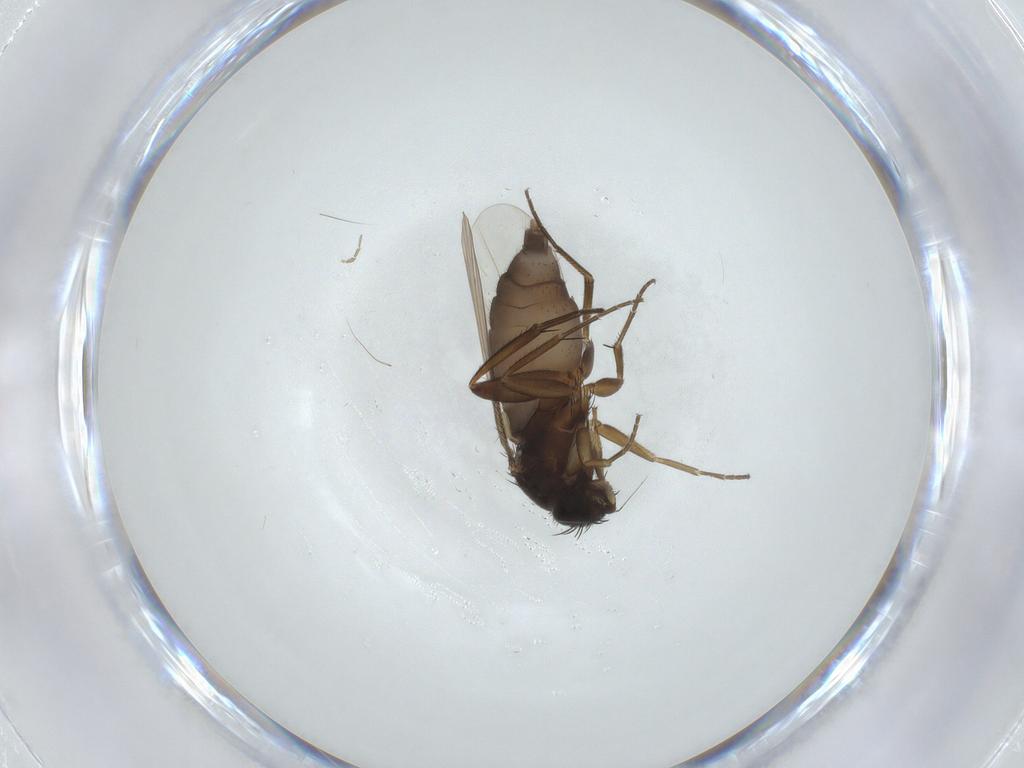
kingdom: Animalia
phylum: Arthropoda
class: Insecta
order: Diptera
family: Phoridae
